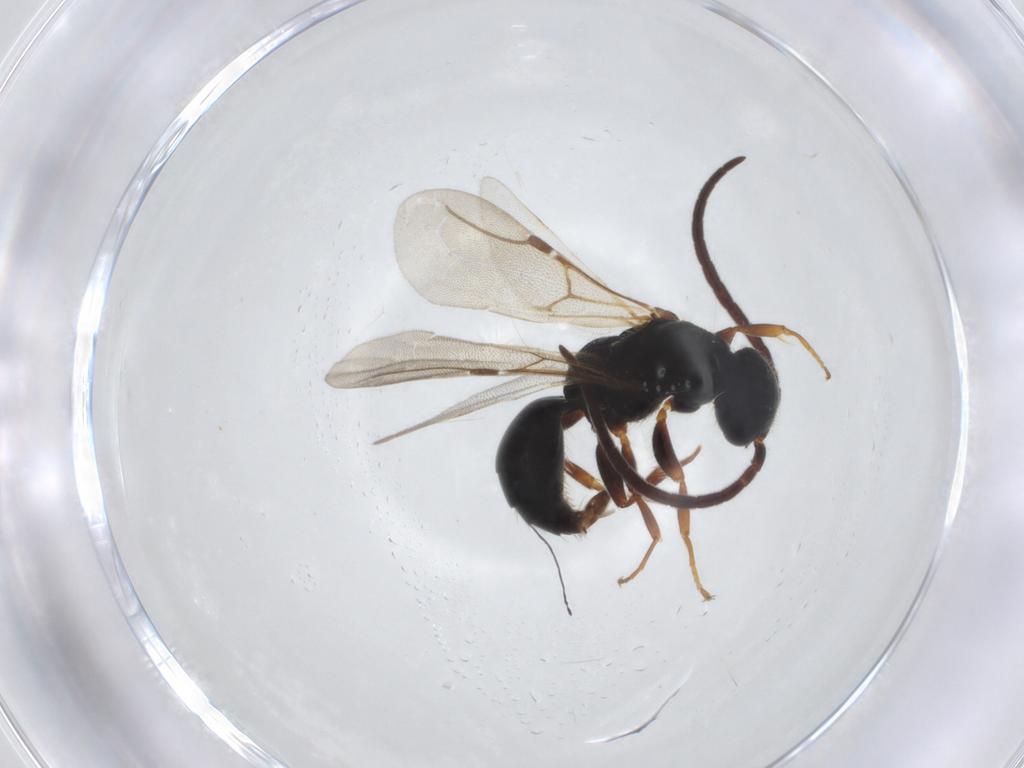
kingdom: Animalia
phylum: Arthropoda
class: Insecta
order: Hymenoptera
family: Bethylidae
